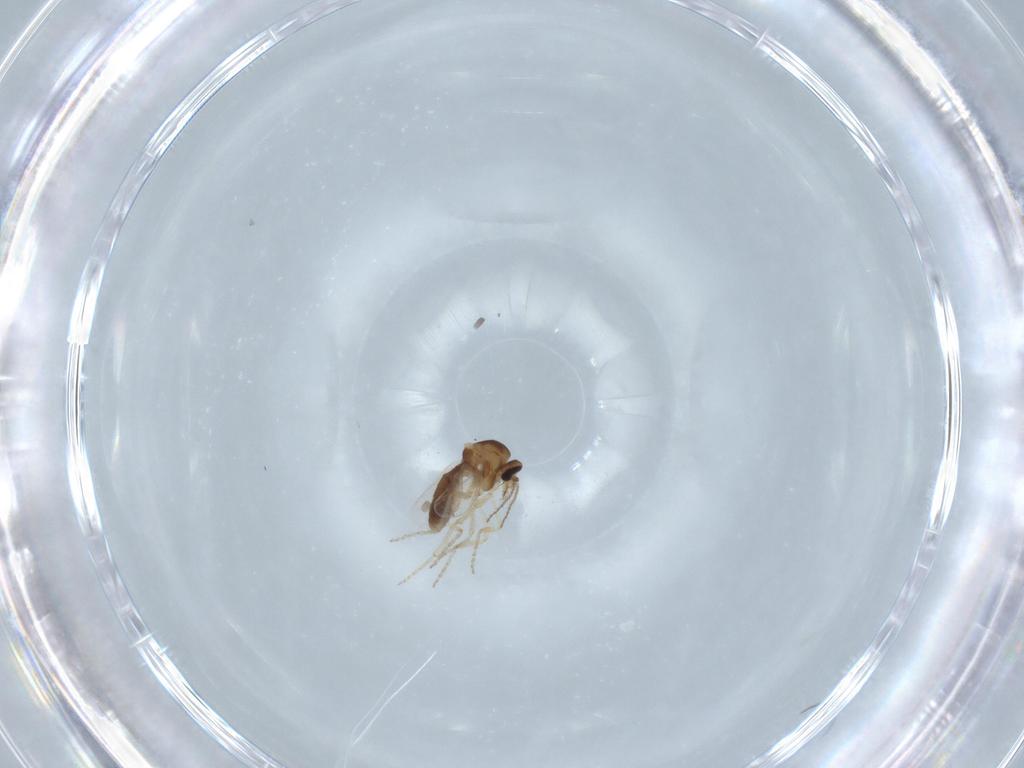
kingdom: Animalia
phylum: Arthropoda
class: Insecta
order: Diptera
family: Ceratopogonidae
